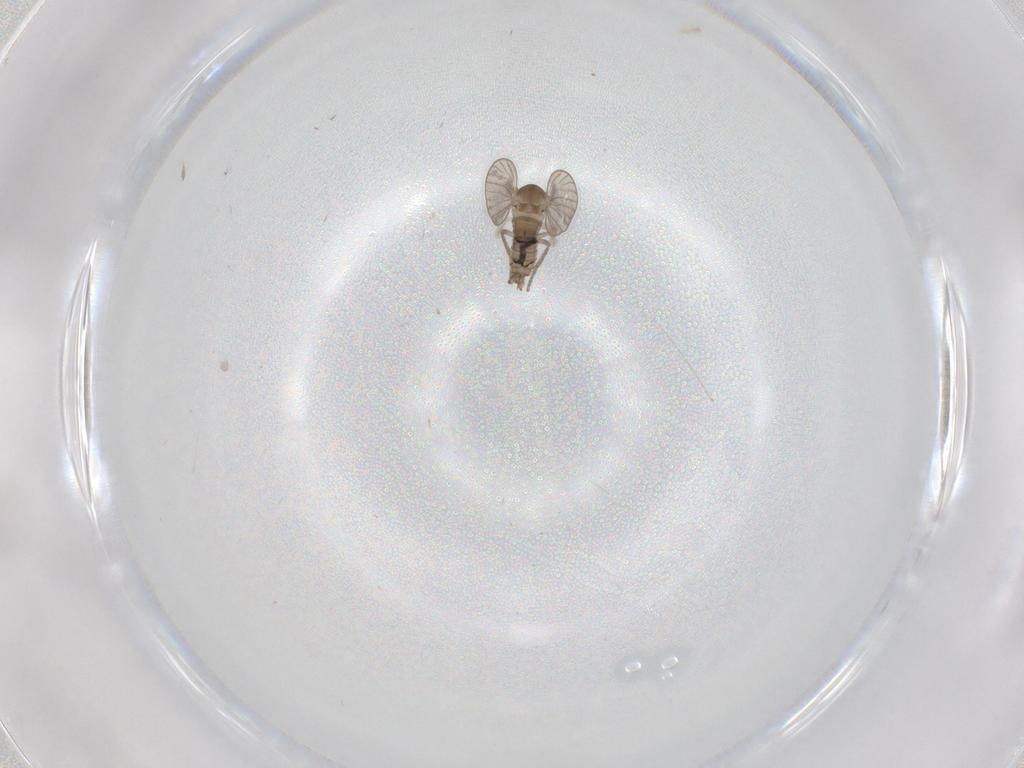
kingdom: Animalia
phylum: Arthropoda
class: Insecta
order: Diptera
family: Psychodidae
